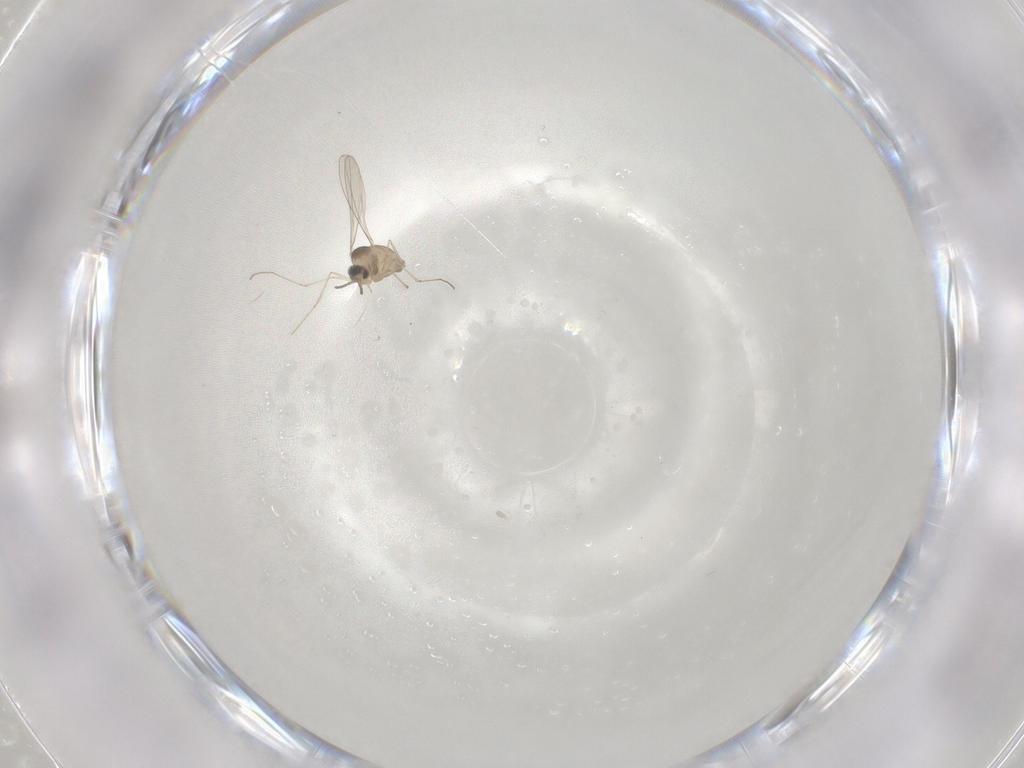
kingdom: Animalia
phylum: Arthropoda
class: Insecta
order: Diptera
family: Cecidomyiidae
